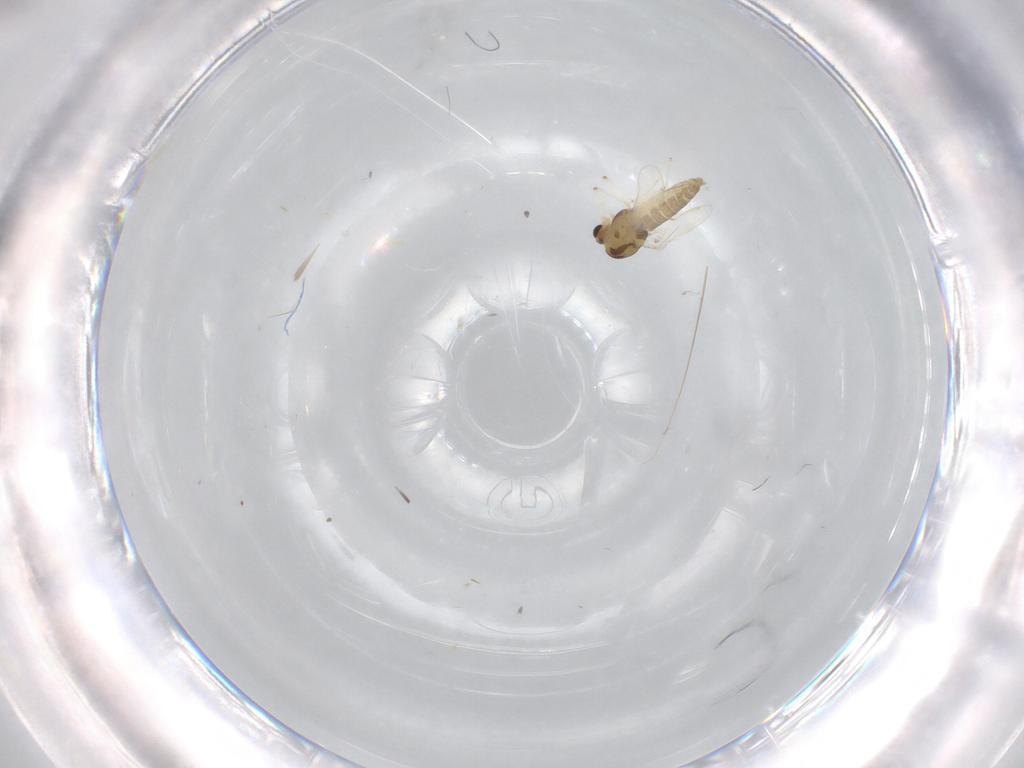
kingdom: Animalia
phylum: Arthropoda
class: Insecta
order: Diptera
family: Chironomidae
